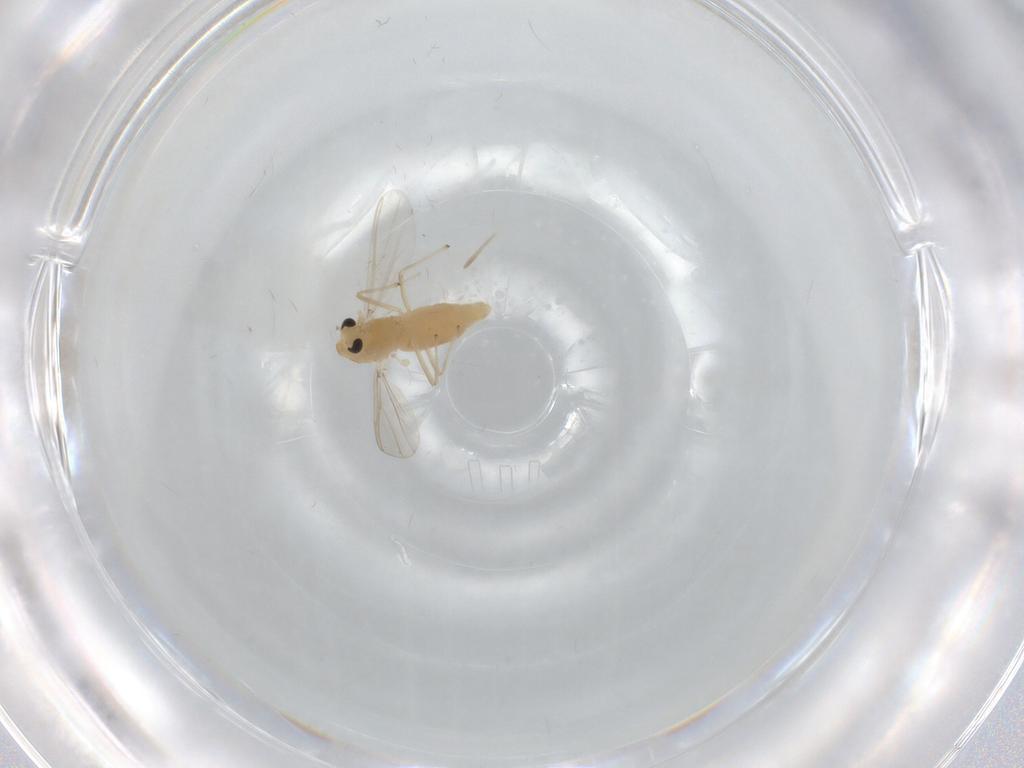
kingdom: Animalia
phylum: Arthropoda
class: Insecta
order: Diptera
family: Chironomidae
